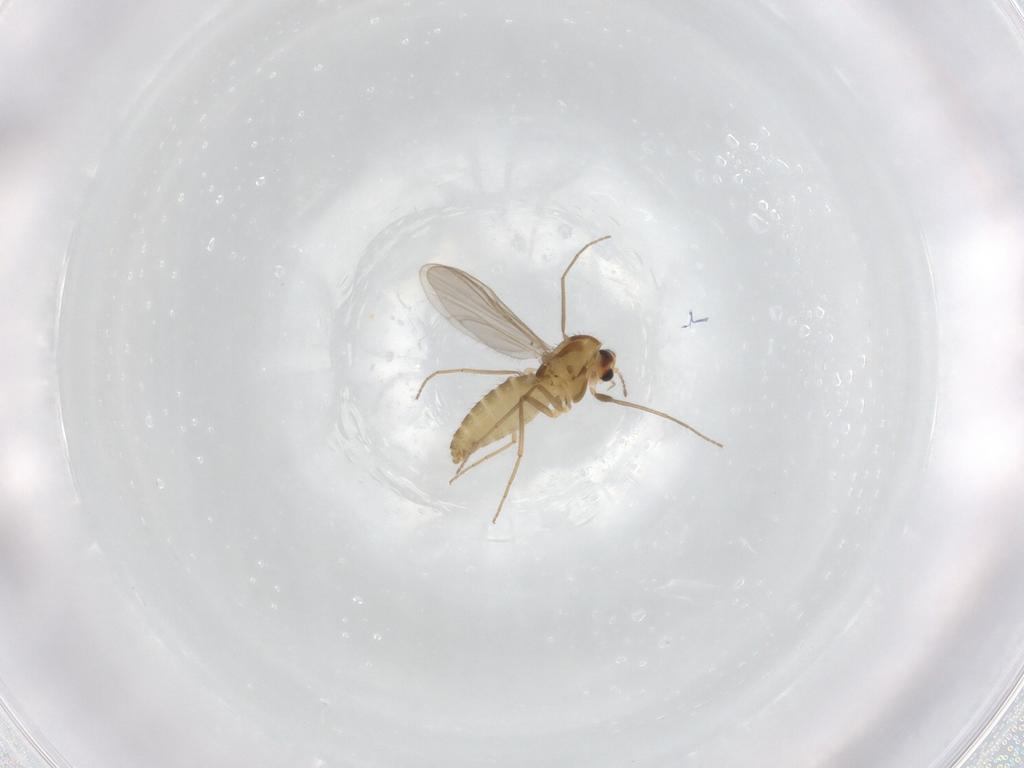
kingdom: Animalia
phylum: Arthropoda
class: Insecta
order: Diptera
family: Chironomidae
